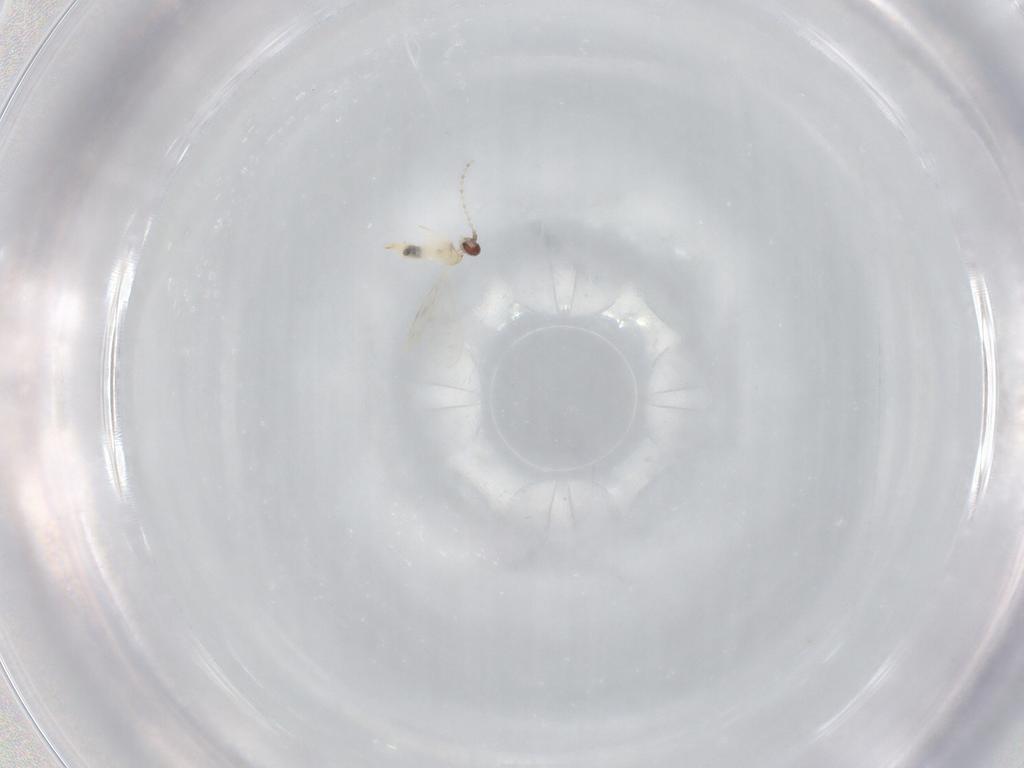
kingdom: Animalia
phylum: Arthropoda
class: Insecta
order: Diptera
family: Cecidomyiidae
